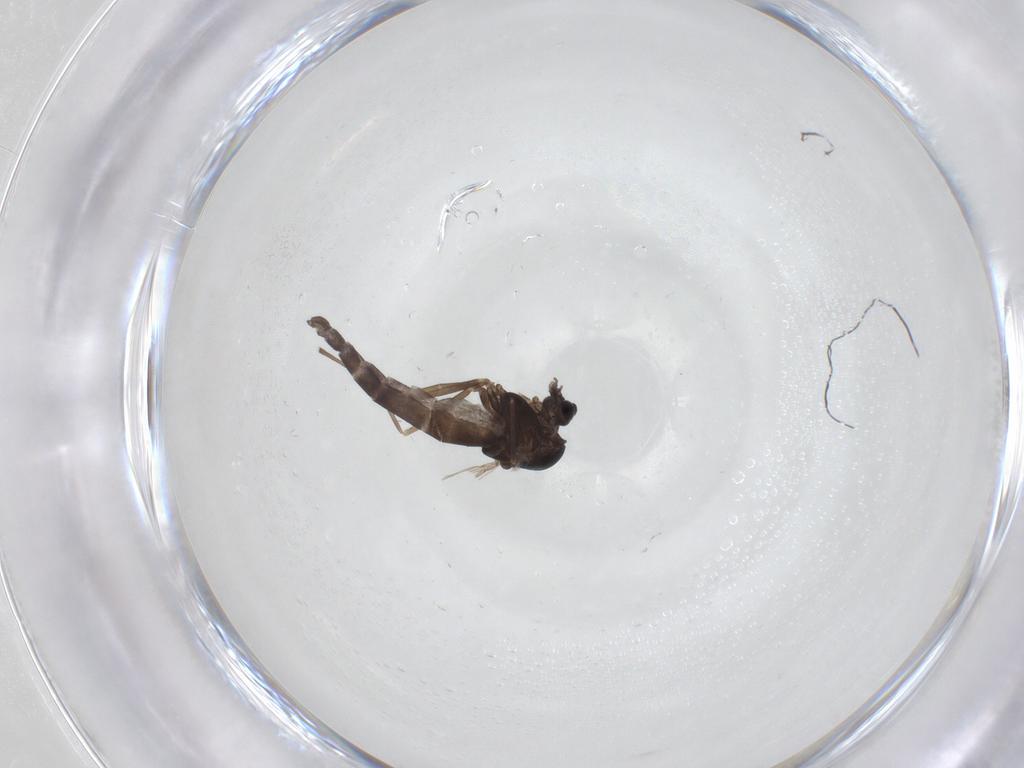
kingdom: Animalia
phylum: Arthropoda
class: Insecta
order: Diptera
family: Chironomidae
